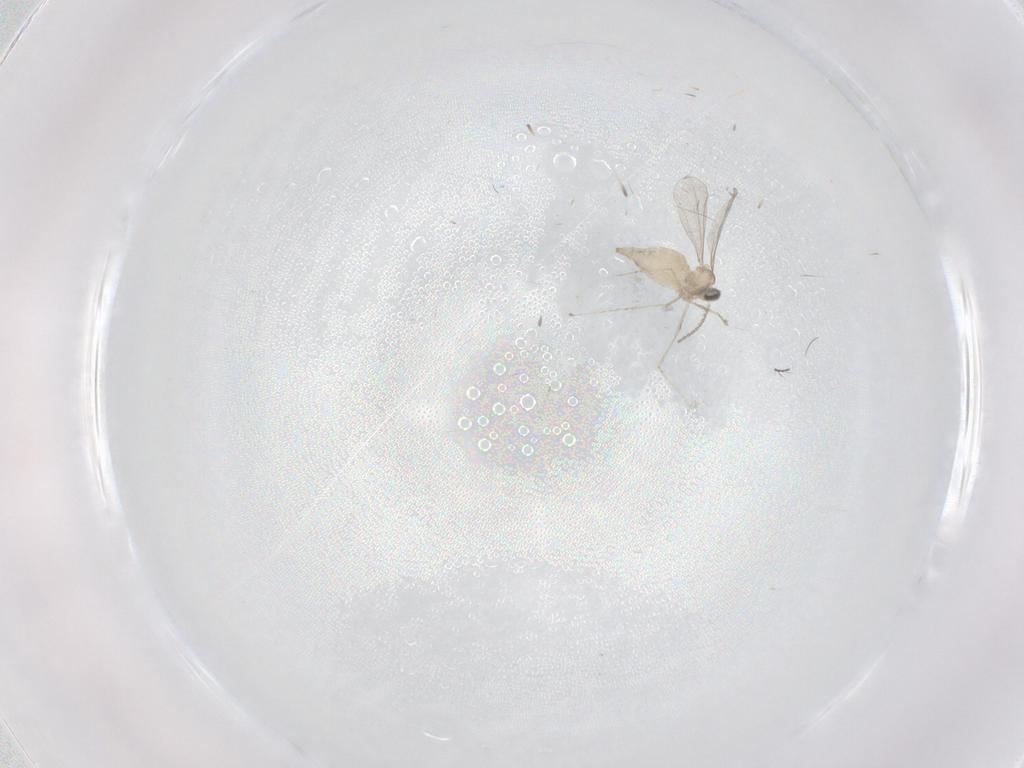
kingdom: Animalia
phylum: Arthropoda
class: Insecta
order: Diptera
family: Cecidomyiidae
